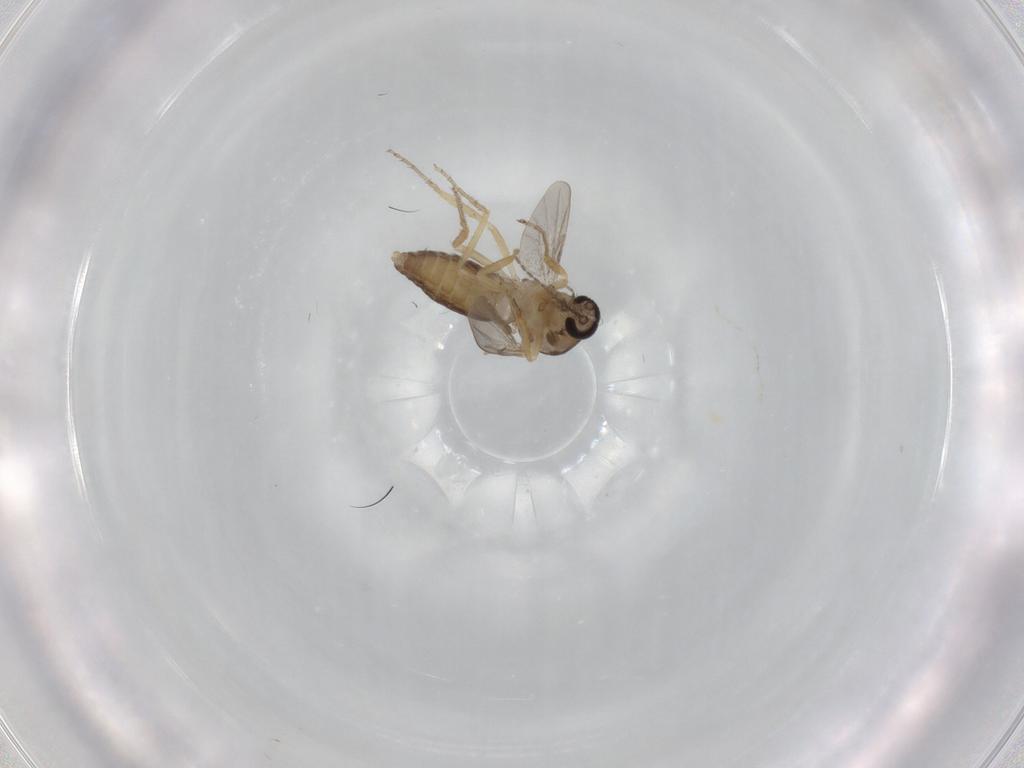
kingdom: Animalia
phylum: Arthropoda
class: Insecta
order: Diptera
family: Ceratopogonidae
